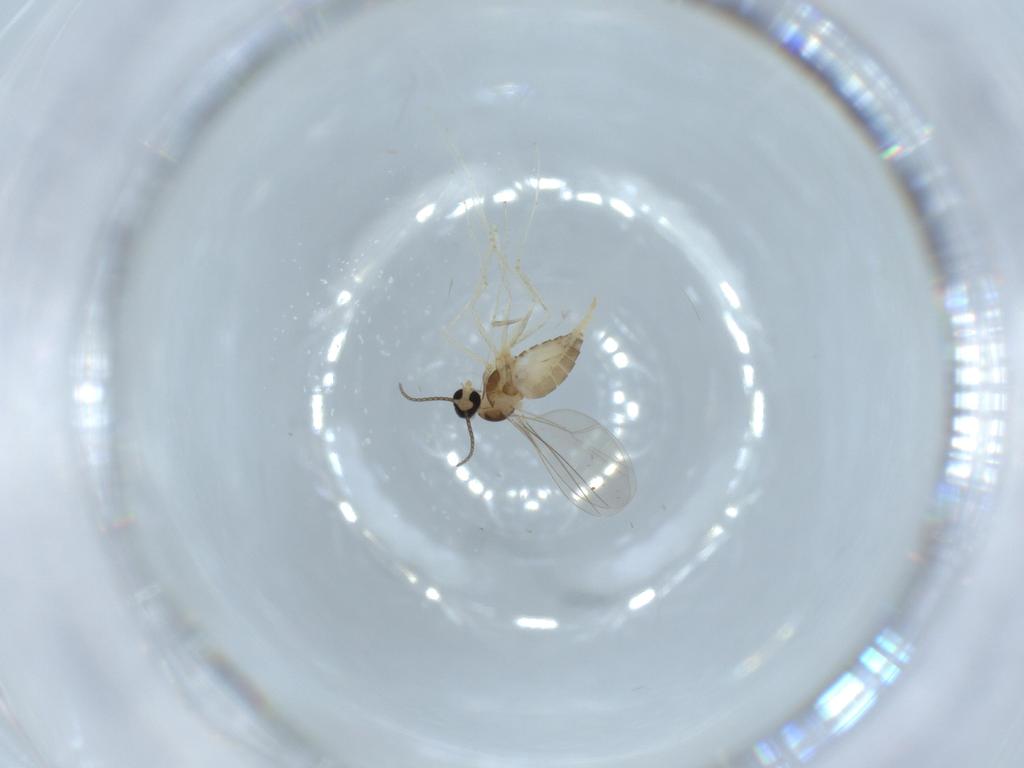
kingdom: Animalia
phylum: Arthropoda
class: Insecta
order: Diptera
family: Cecidomyiidae
